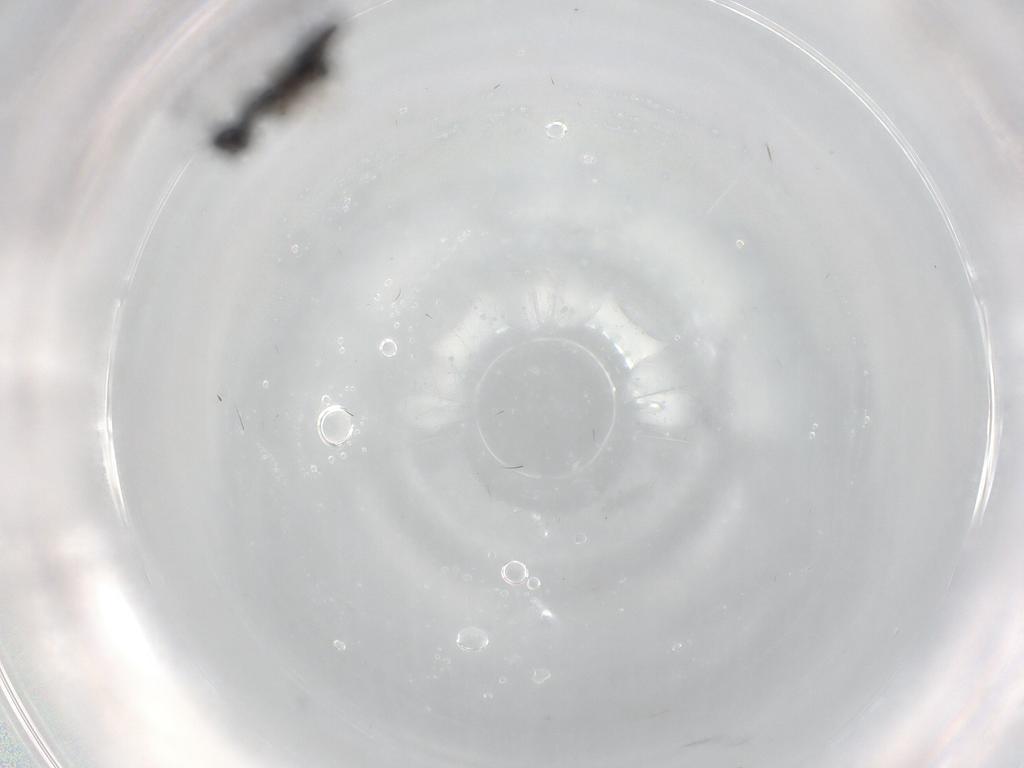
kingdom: Animalia
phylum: Arthropoda
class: Insecta
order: Hymenoptera
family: Pteromalidae
